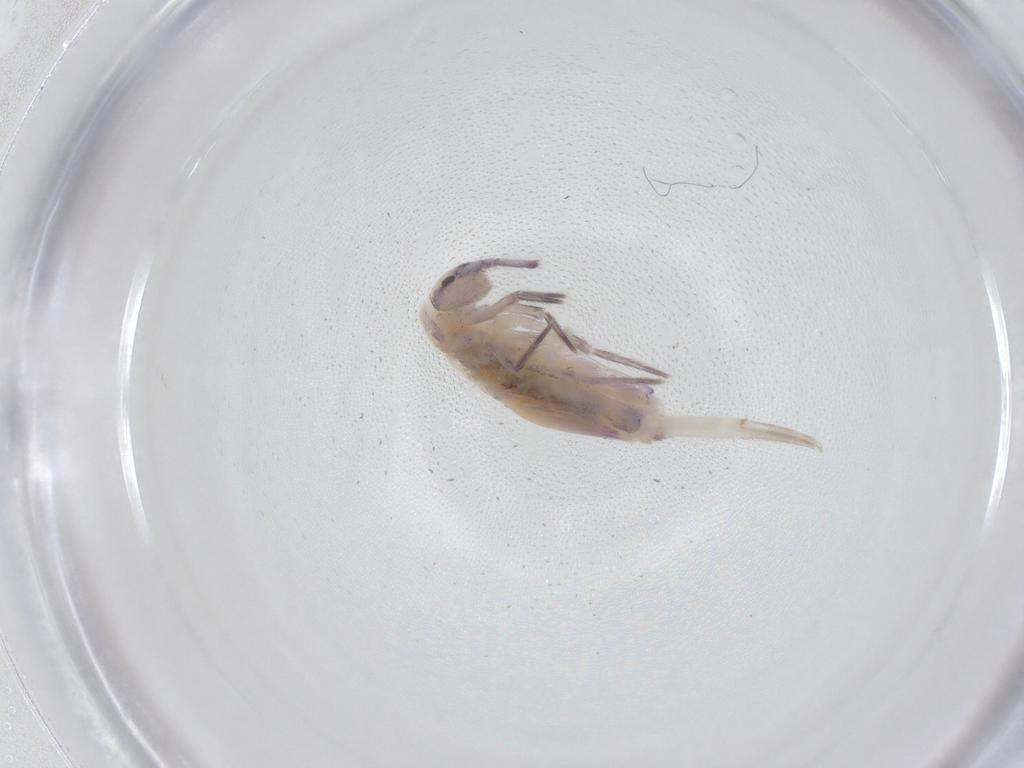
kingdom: Animalia
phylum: Arthropoda
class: Collembola
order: Entomobryomorpha
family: Entomobryidae
